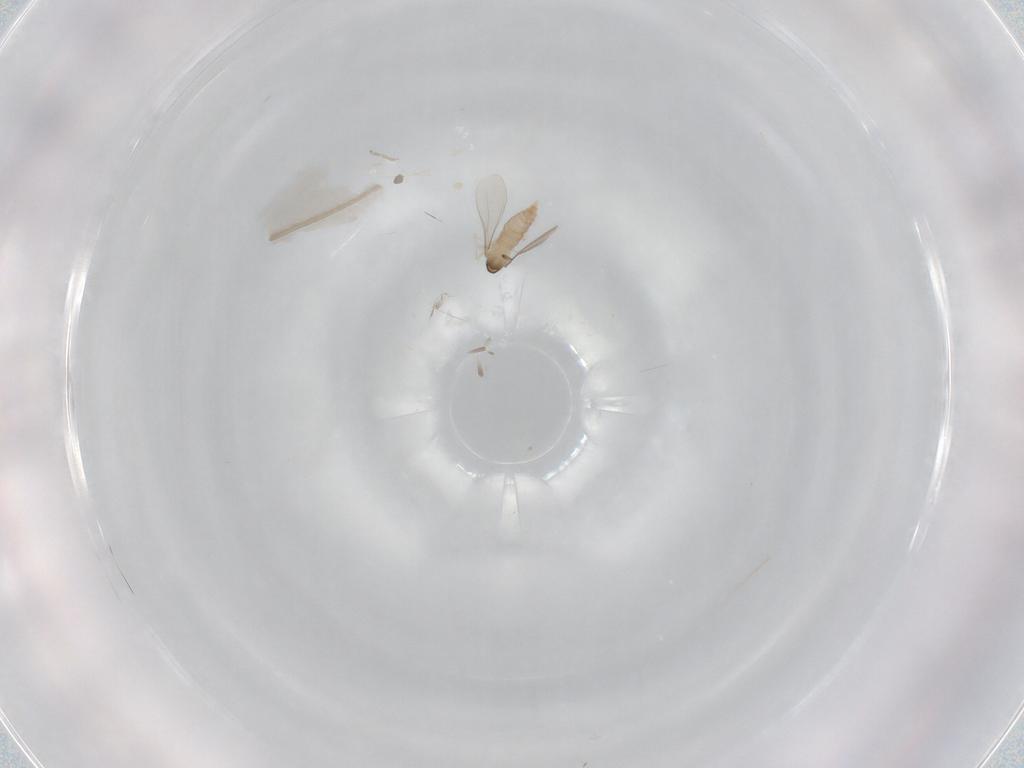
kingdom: Animalia
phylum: Arthropoda
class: Insecta
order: Diptera
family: Cecidomyiidae
